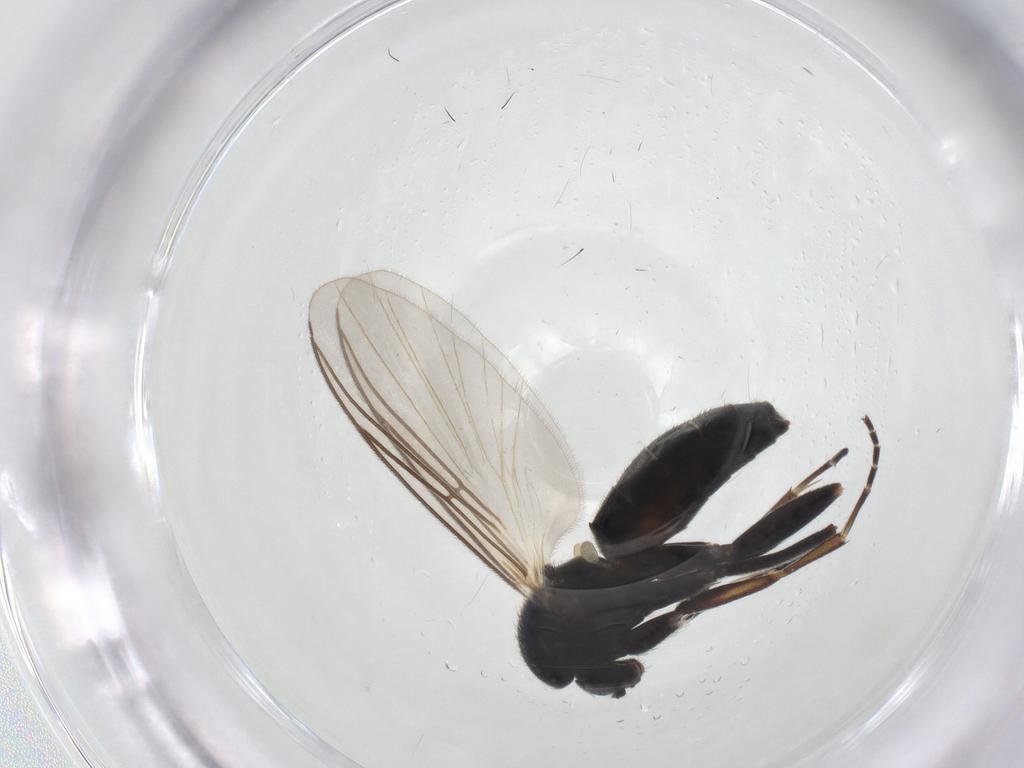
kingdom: Animalia
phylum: Arthropoda
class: Insecta
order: Diptera
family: Mycetophilidae
